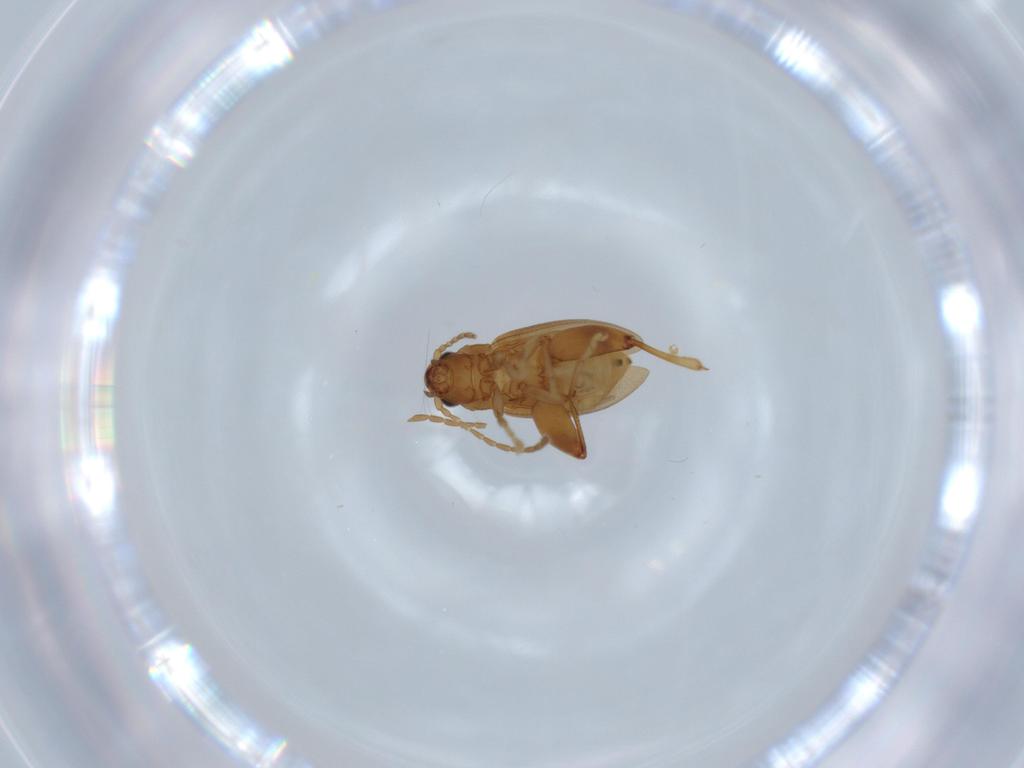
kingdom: Animalia
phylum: Arthropoda
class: Insecta
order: Coleoptera
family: Chrysomelidae
